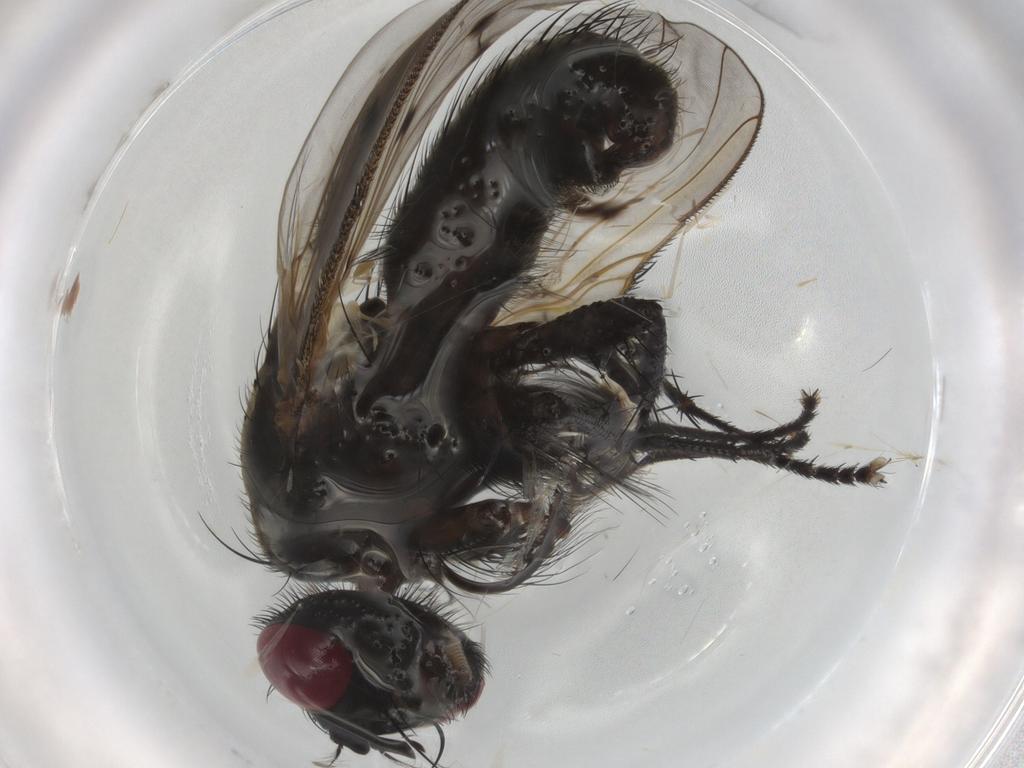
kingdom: Animalia
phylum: Arthropoda
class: Insecta
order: Diptera
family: Muscidae
